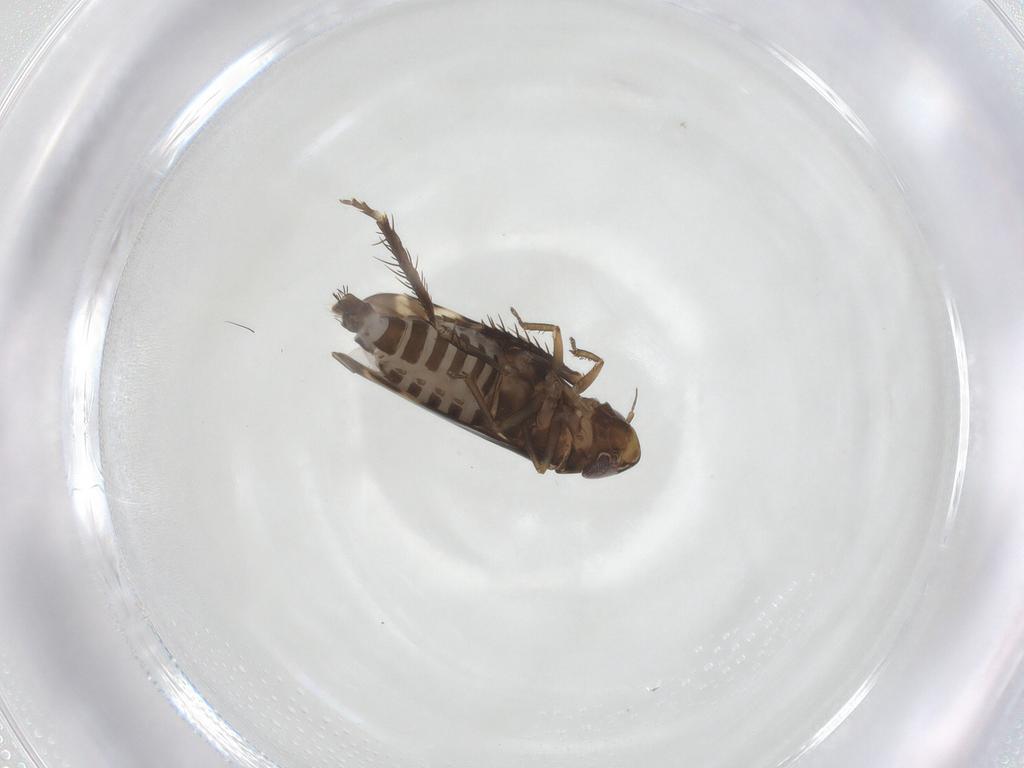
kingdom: Animalia
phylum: Arthropoda
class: Insecta
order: Hemiptera
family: Cicadellidae
